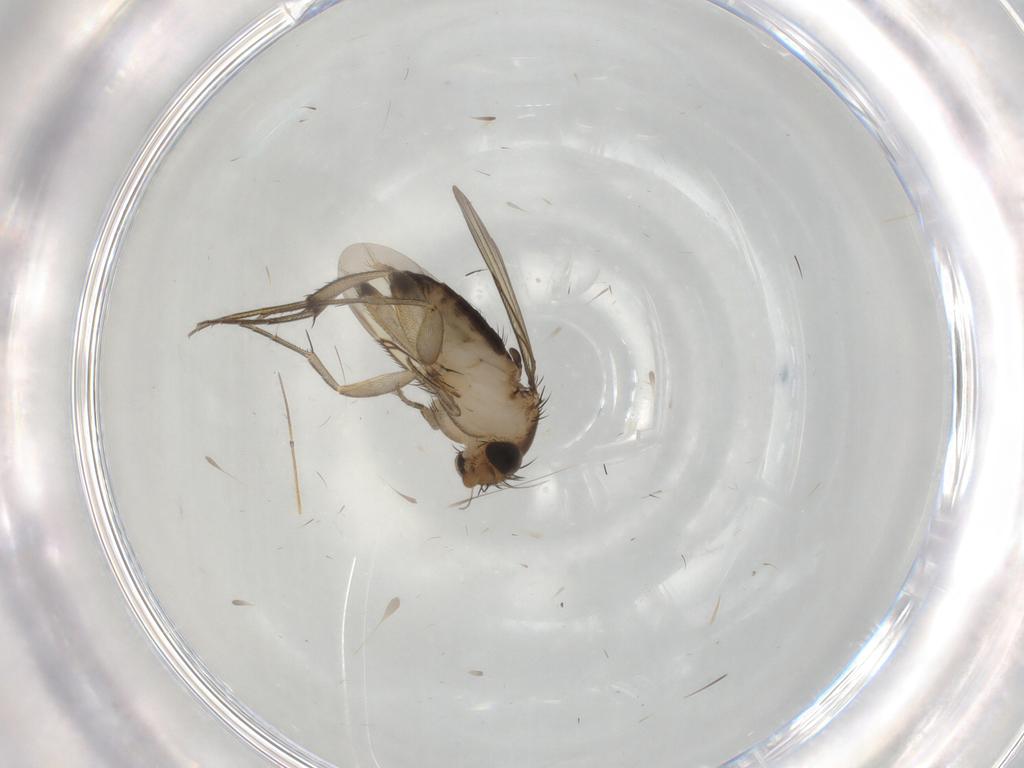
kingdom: Animalia
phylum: Arthropoda
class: Insecta
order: Diptera
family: Phoridae
